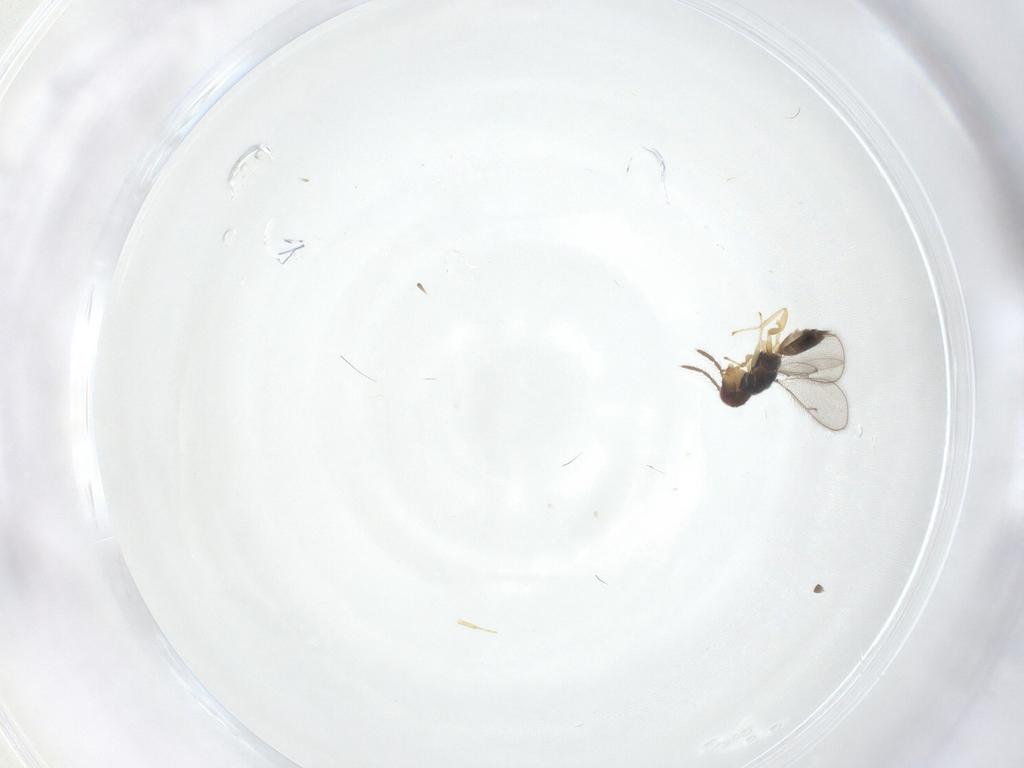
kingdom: Animalia
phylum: Arthropoda
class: Insecta
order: Hymenoptera
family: Eulophidae
